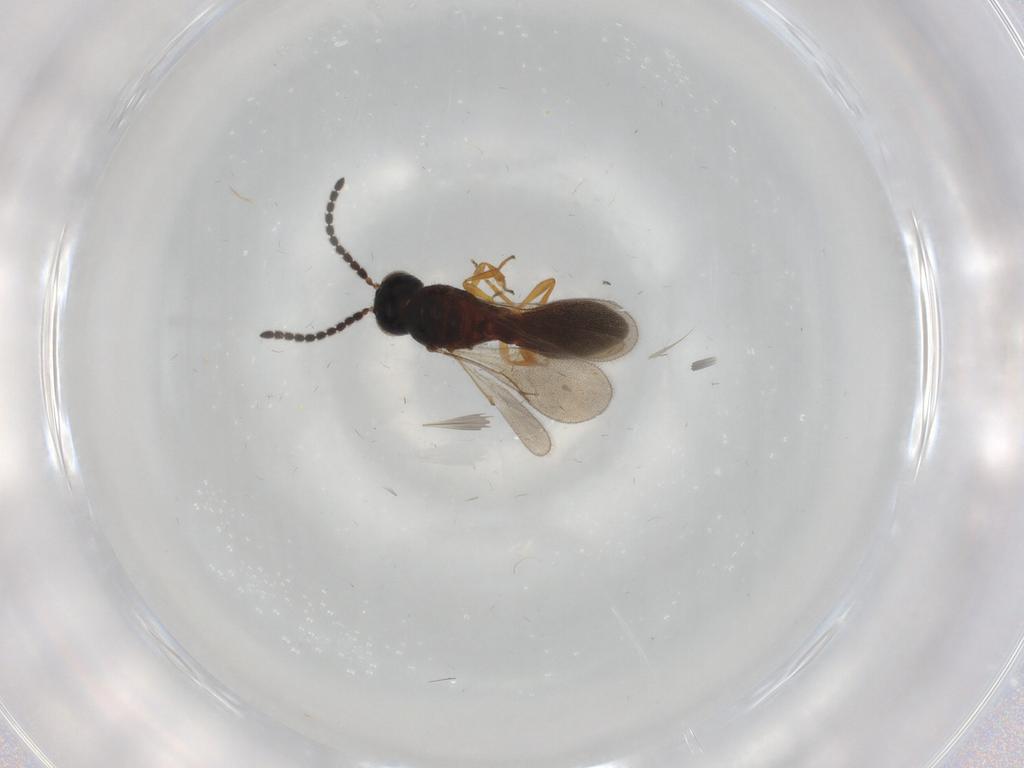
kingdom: Animalia
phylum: Arthropoda
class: Insecta
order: Hymenoptera
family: Scelionidae
